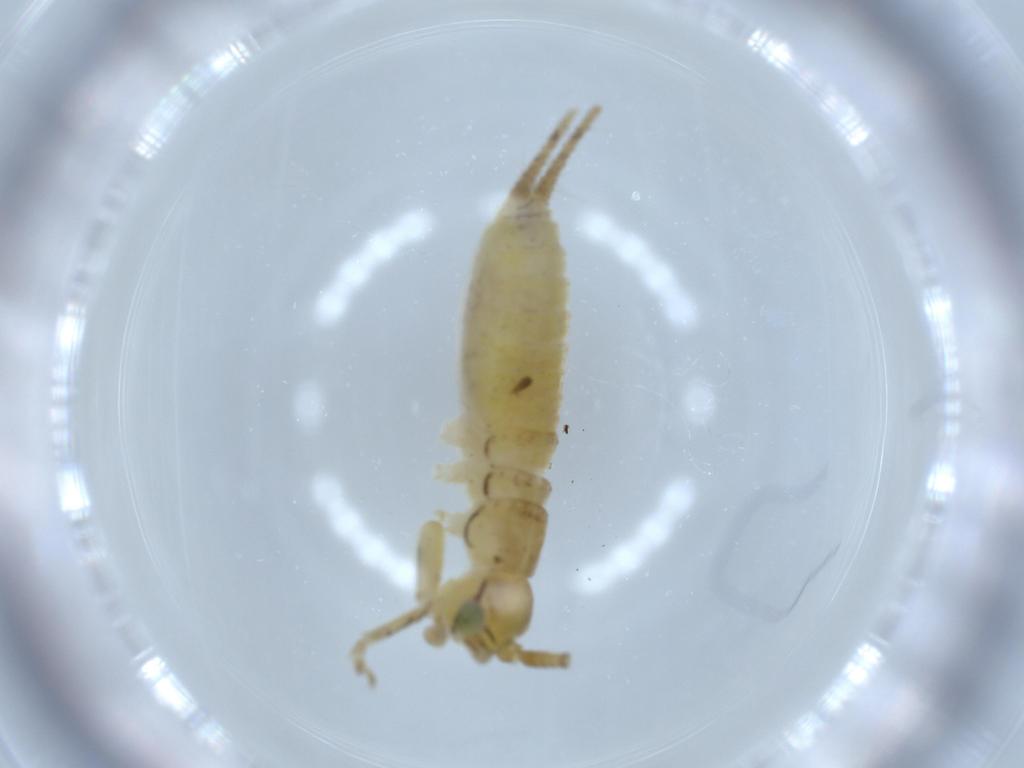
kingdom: Animalia
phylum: Arthropoda
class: Insecta
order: Orthoptera
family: Gryllidae
